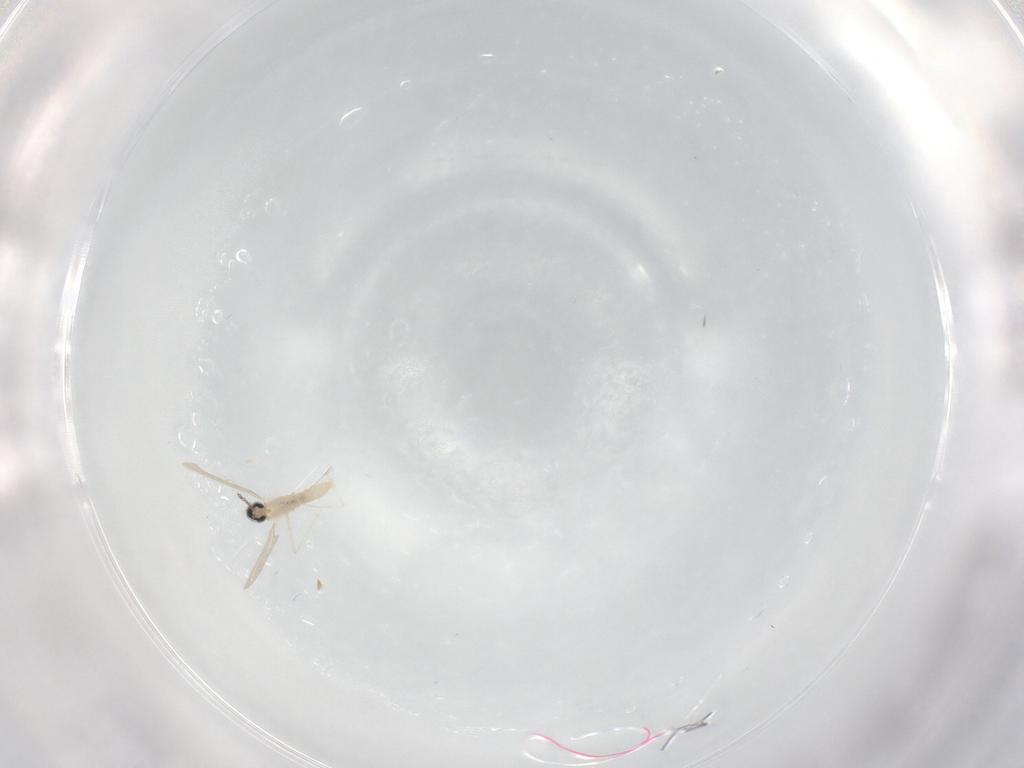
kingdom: Animalia
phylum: Arthropoda
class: Insecta
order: Diptera
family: Cecidomyiidae
